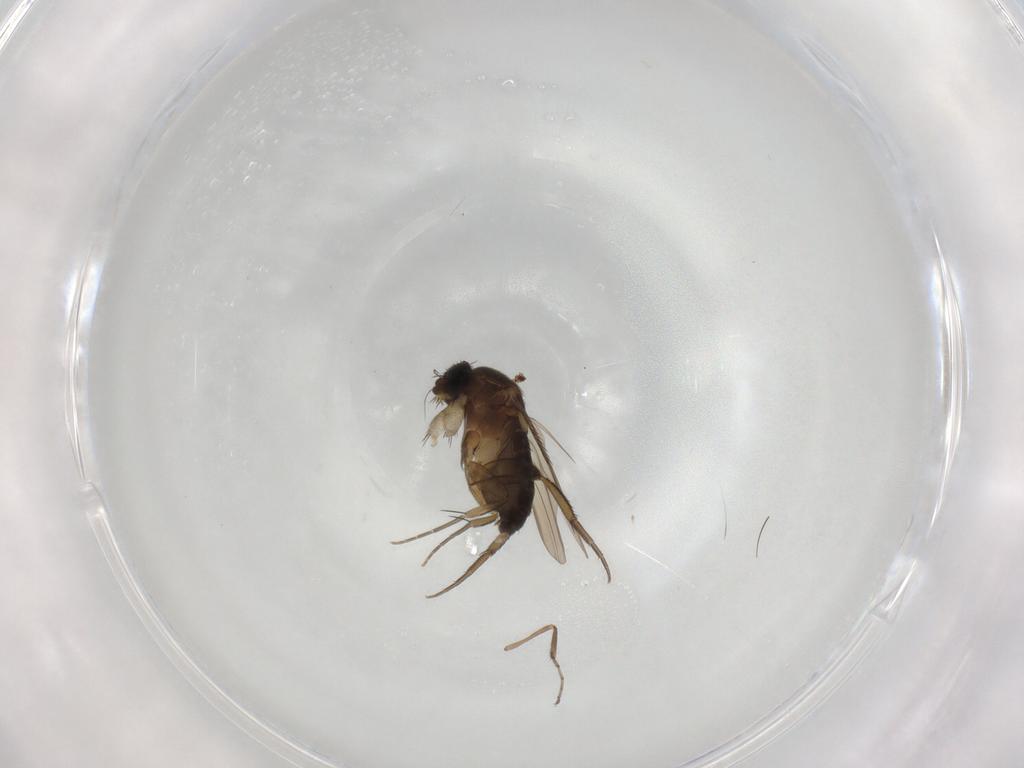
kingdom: Animalia
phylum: Arthropoda
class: Insecta
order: Diptera
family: Phoridae
